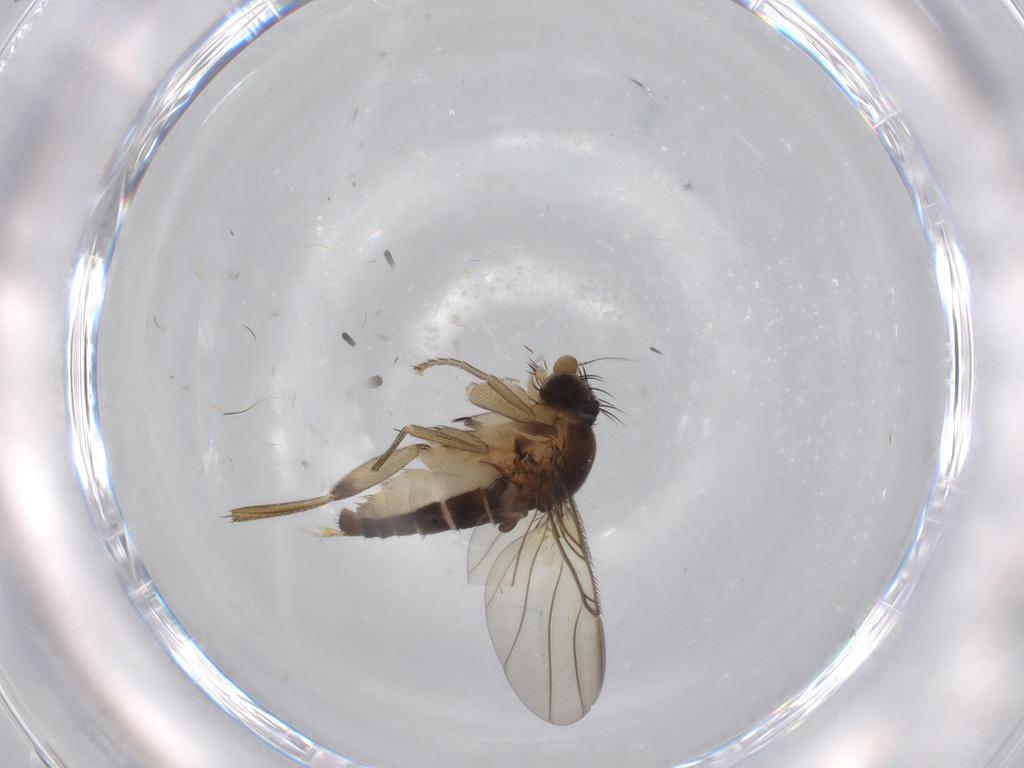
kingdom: Animalia
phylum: Arthropoda
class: Insecta
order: Diptera
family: Phoridae
